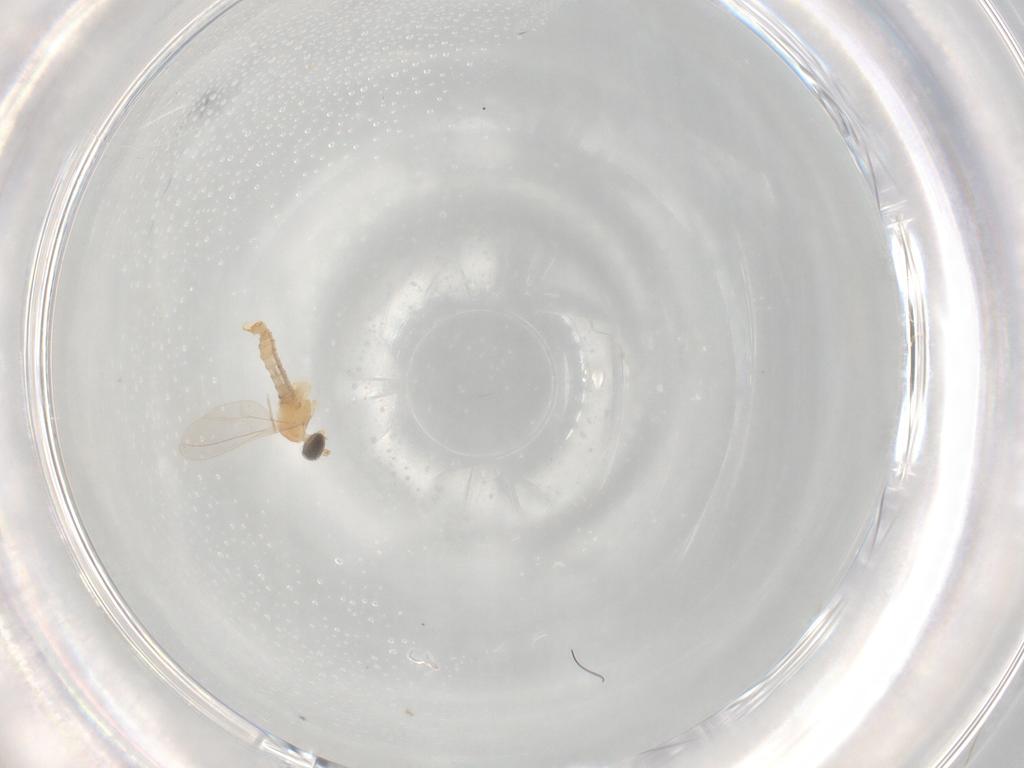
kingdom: Animalia
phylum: Arthropoda
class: Insecta
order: Diptera
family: Cecidomyiidae
